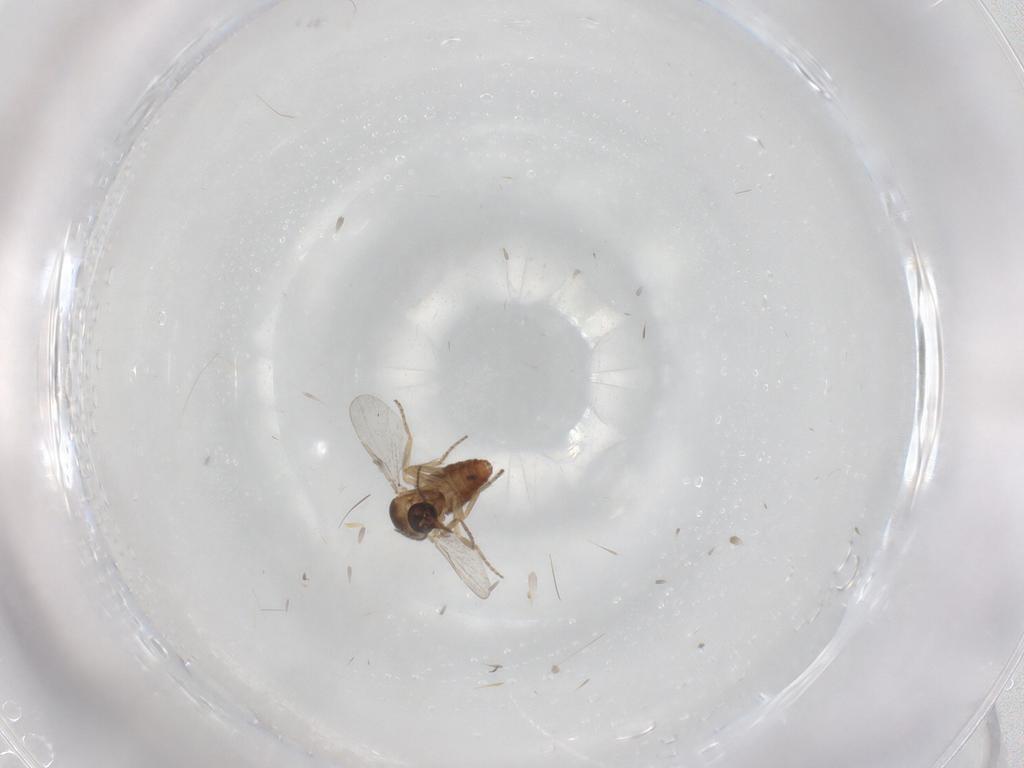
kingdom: Animalia
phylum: Arthropoda
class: Insecta
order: Diptera
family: Ceratopogonidae
